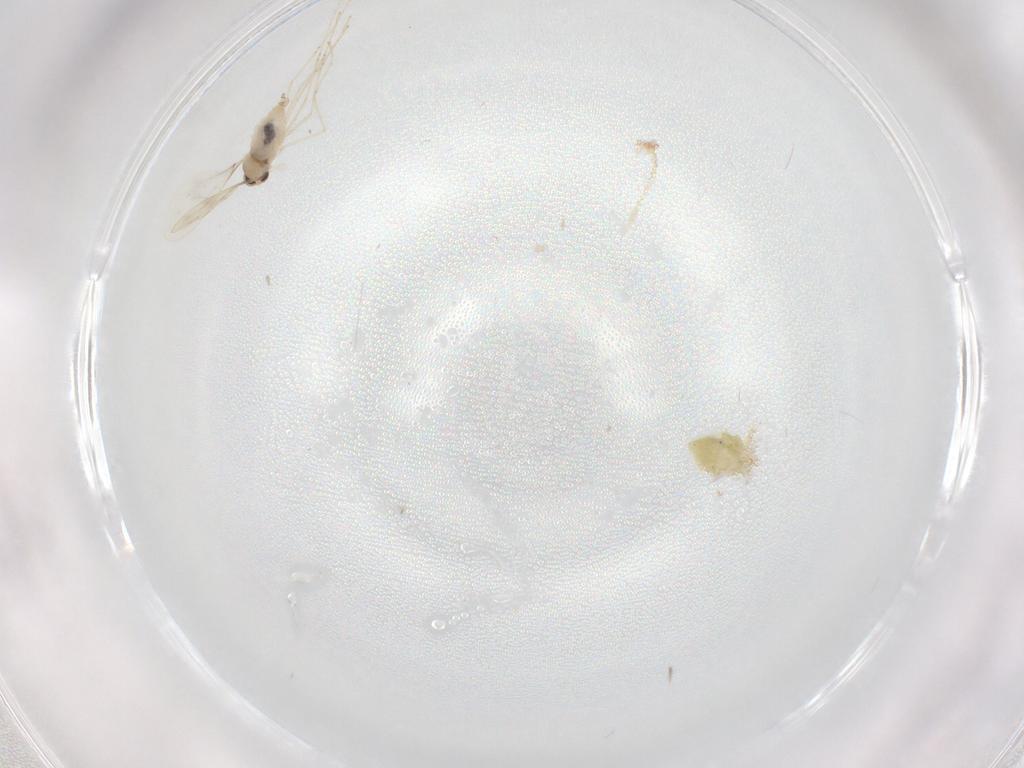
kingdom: Animalia
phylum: Arthropoda
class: Insecta
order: Diptera
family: Cecidomyiidae
